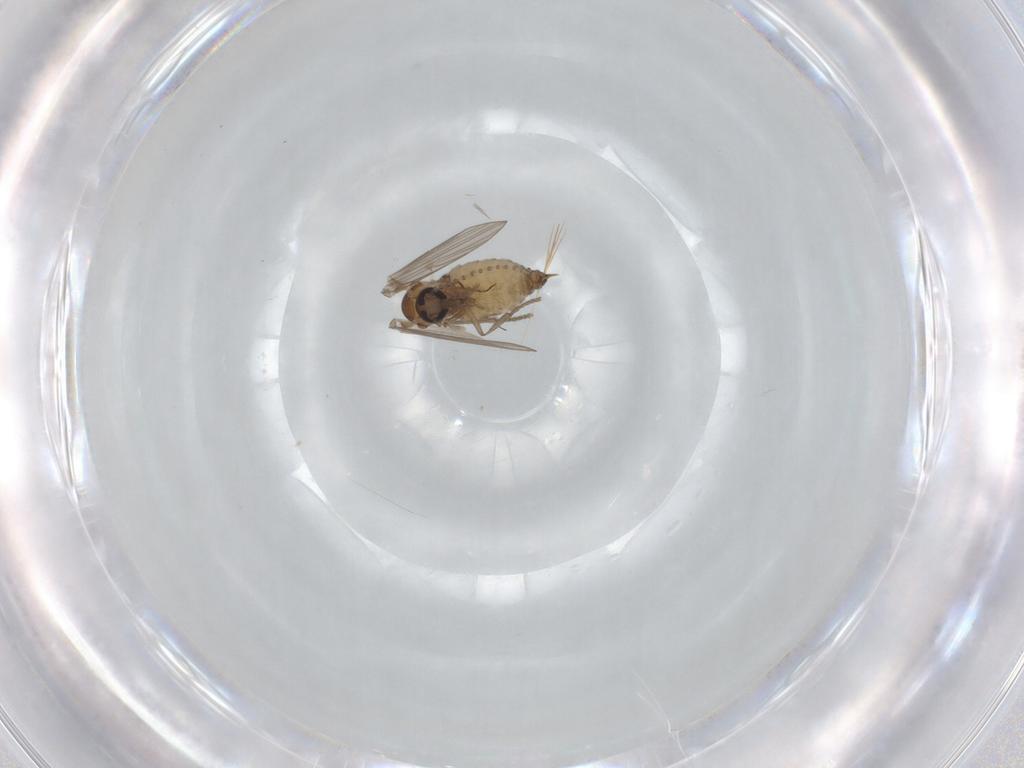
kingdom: Animalia
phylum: Arthropoda
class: Insecta
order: Diptera
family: Psychodidae
